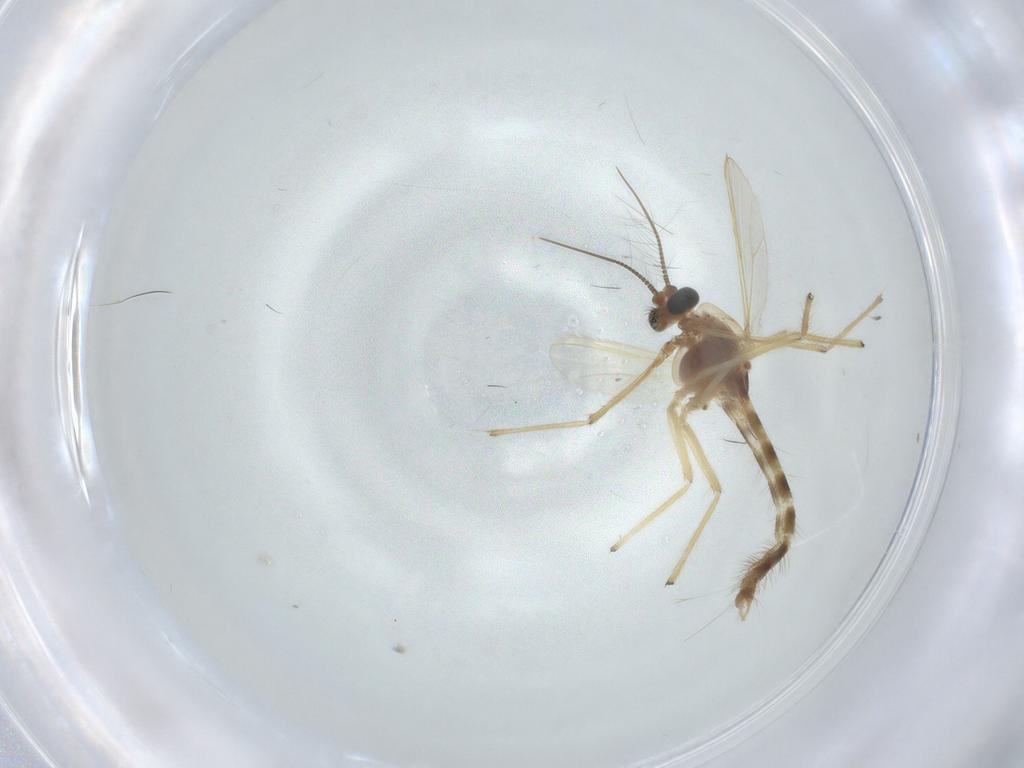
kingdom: Animalia
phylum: Arthropoda
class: Insecta
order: Diptera
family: Chironomidae
